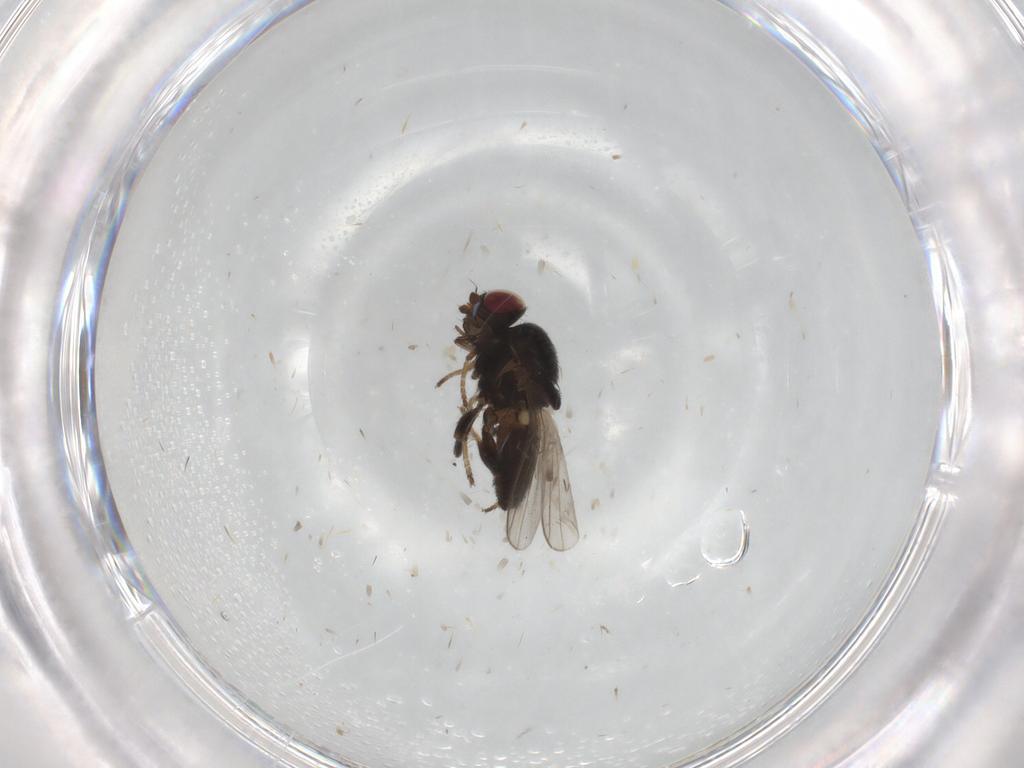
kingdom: Animalia
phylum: Arthropoda
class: Insecta
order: Diptera
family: Chloropidae
